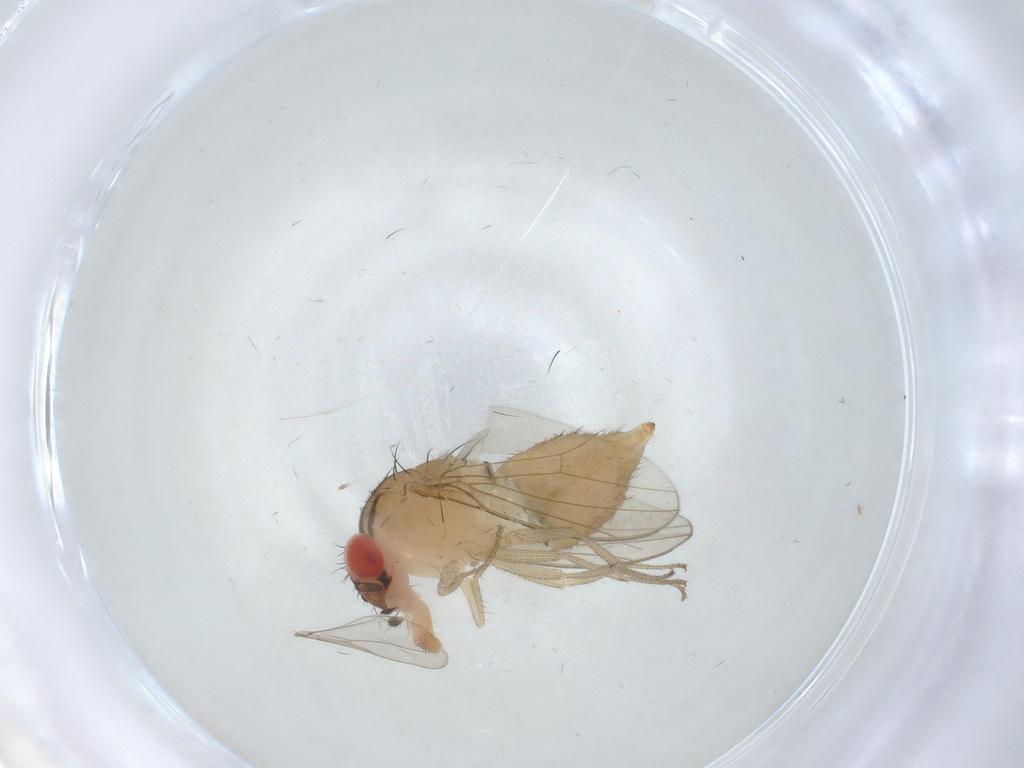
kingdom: Animalia
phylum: Arthropoda
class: Insecta
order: Diptera
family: Drosophilidae
